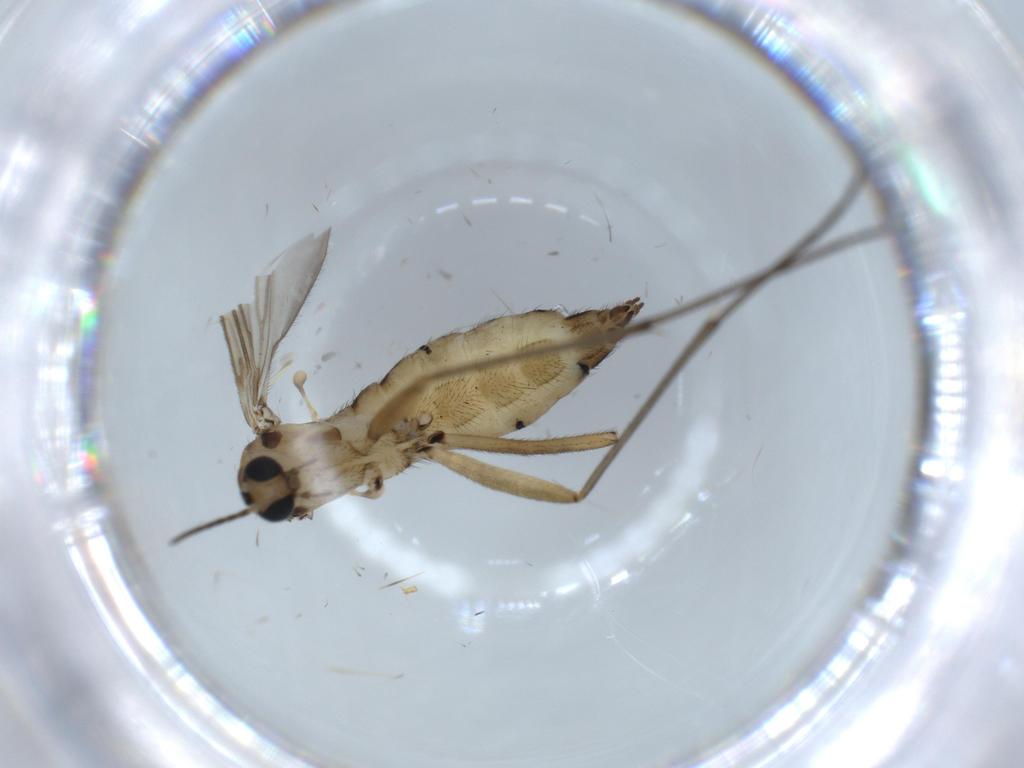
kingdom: Animalia
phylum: Arthropoda
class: Insecta
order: Diptera
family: Sciaridae
